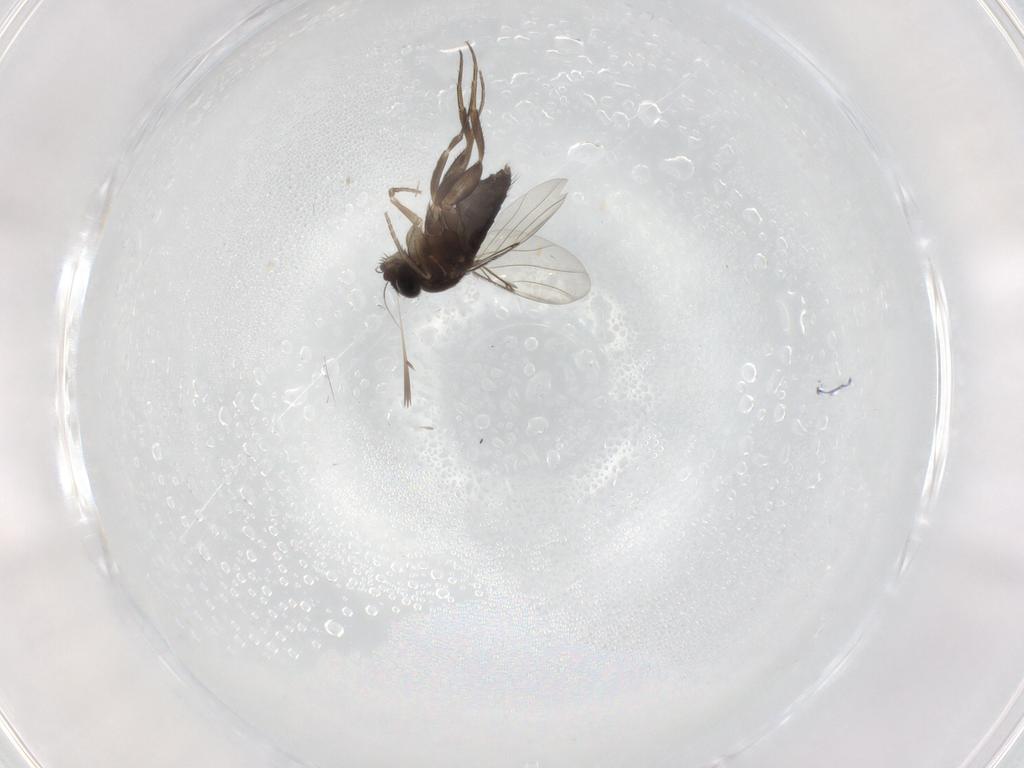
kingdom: Animalia
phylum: Arthropoda
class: Insecta
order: Diptera
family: Phoridae
